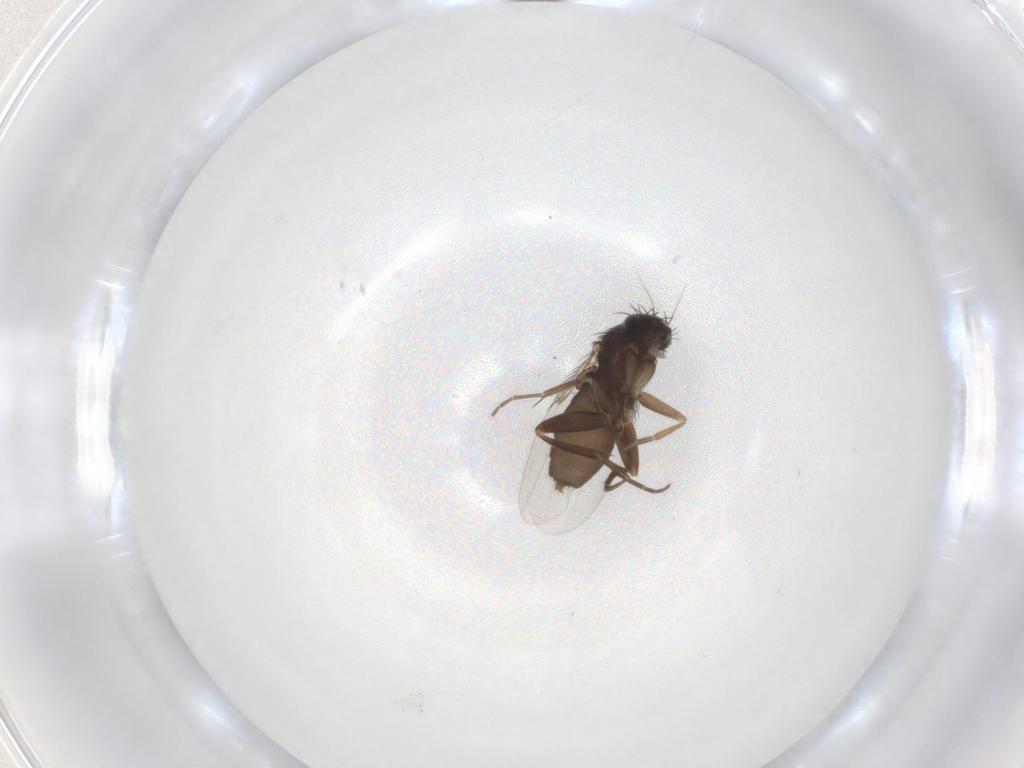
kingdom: Animalia
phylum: Arthropoda
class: Insecta
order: Diptera
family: Phoridae
